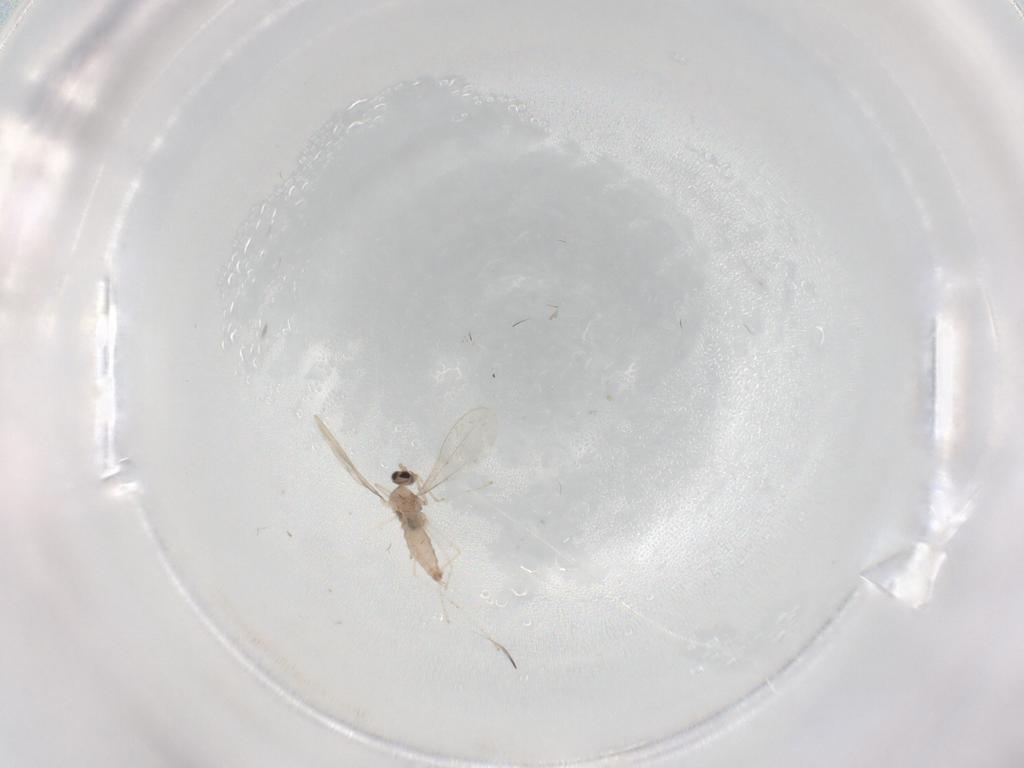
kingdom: Animalia
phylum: Arthropoda
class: Insecta
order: Diptera
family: Cecidomyiidae
